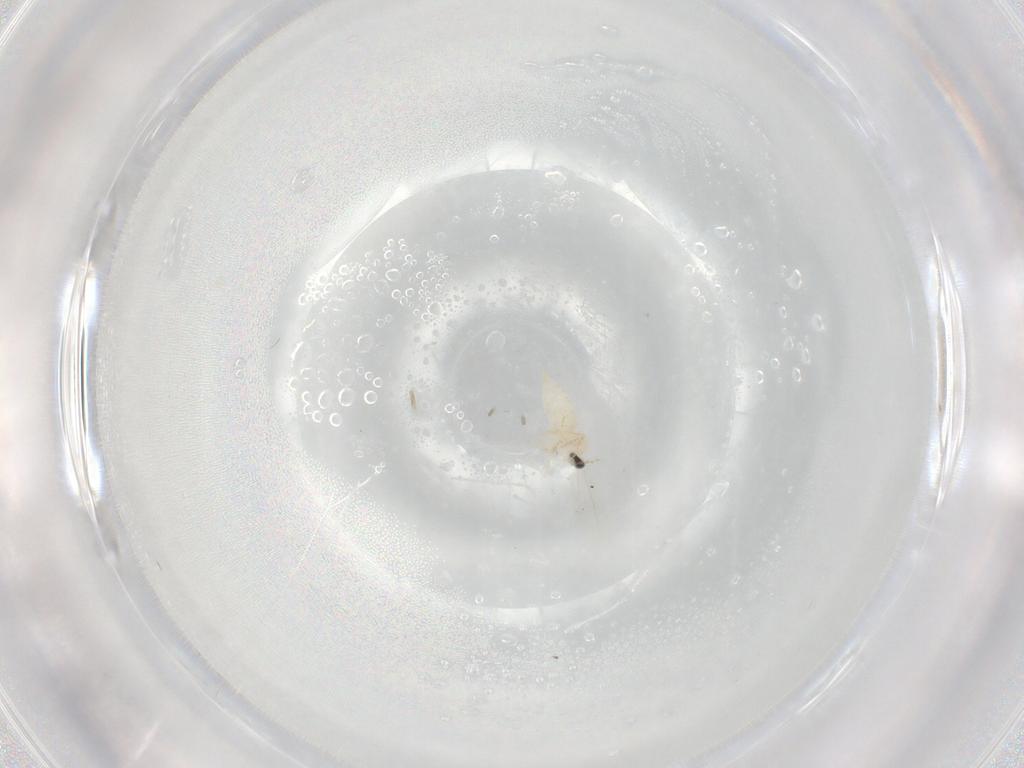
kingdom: Animalia
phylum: Arthropoda
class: Insecta
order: Diptera
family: Cecidomyiidae
